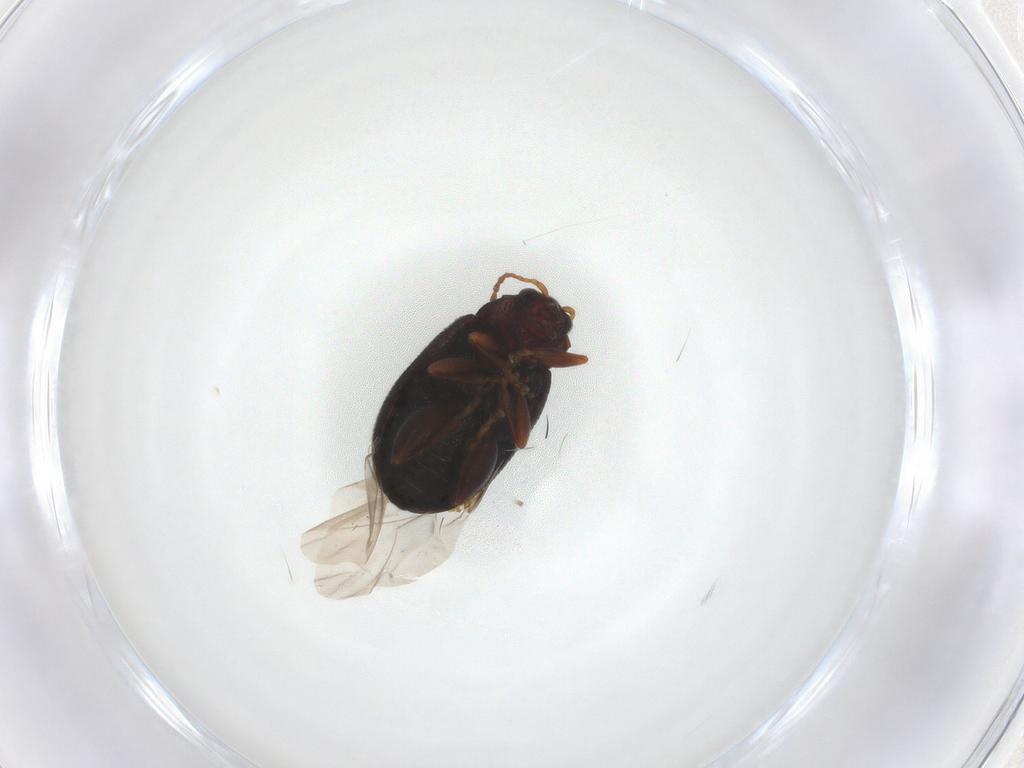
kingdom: Animalia
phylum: Arthropoda
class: Insecta
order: Coleoptera
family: Chrysomelidae
